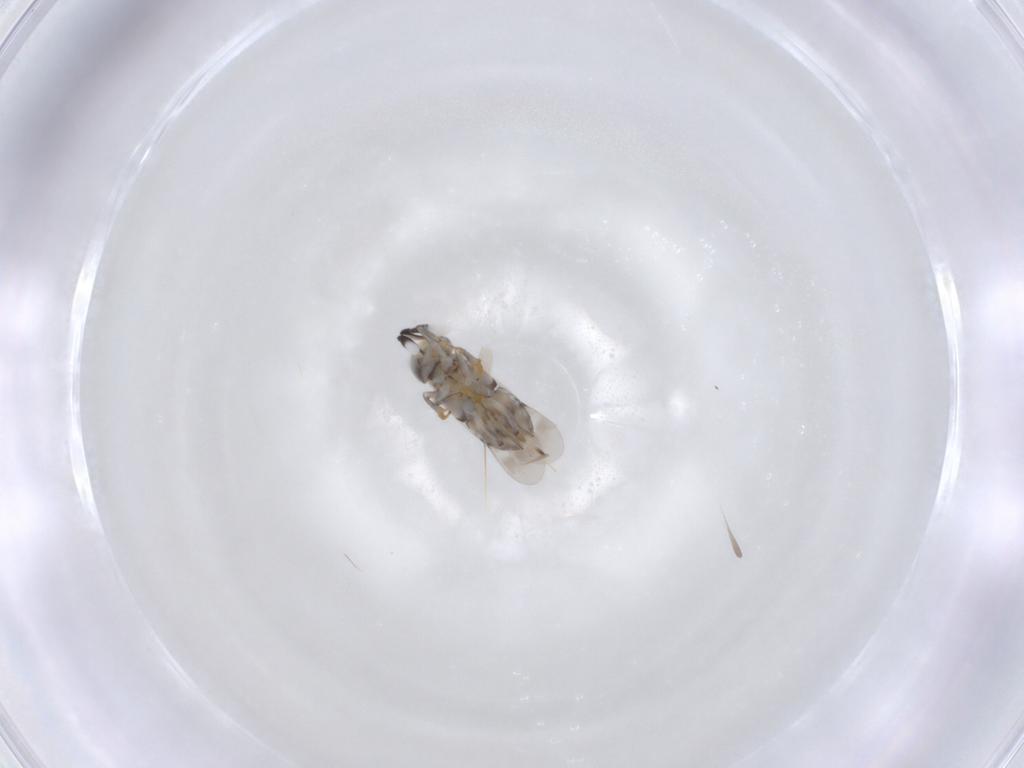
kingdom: Animalia
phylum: Arthropoda
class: Insecta
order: Hymenoptera
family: Encyrtidae
